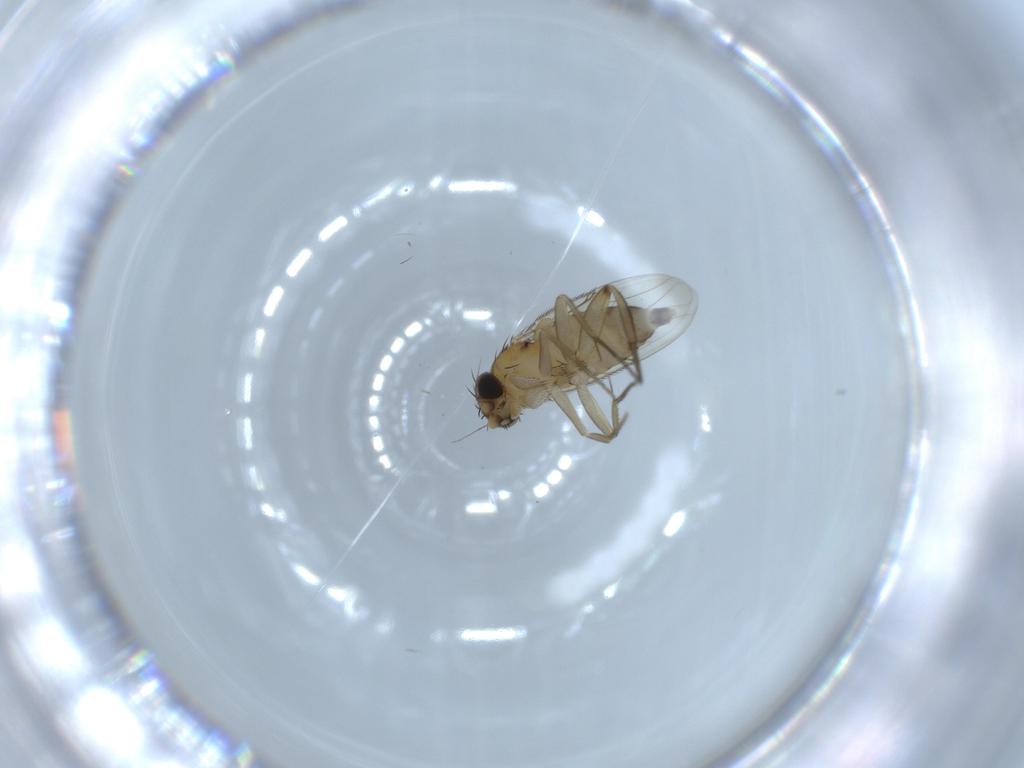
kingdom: Animalia
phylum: Arthropoda
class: Insecta
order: Diptera
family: Phoridae
